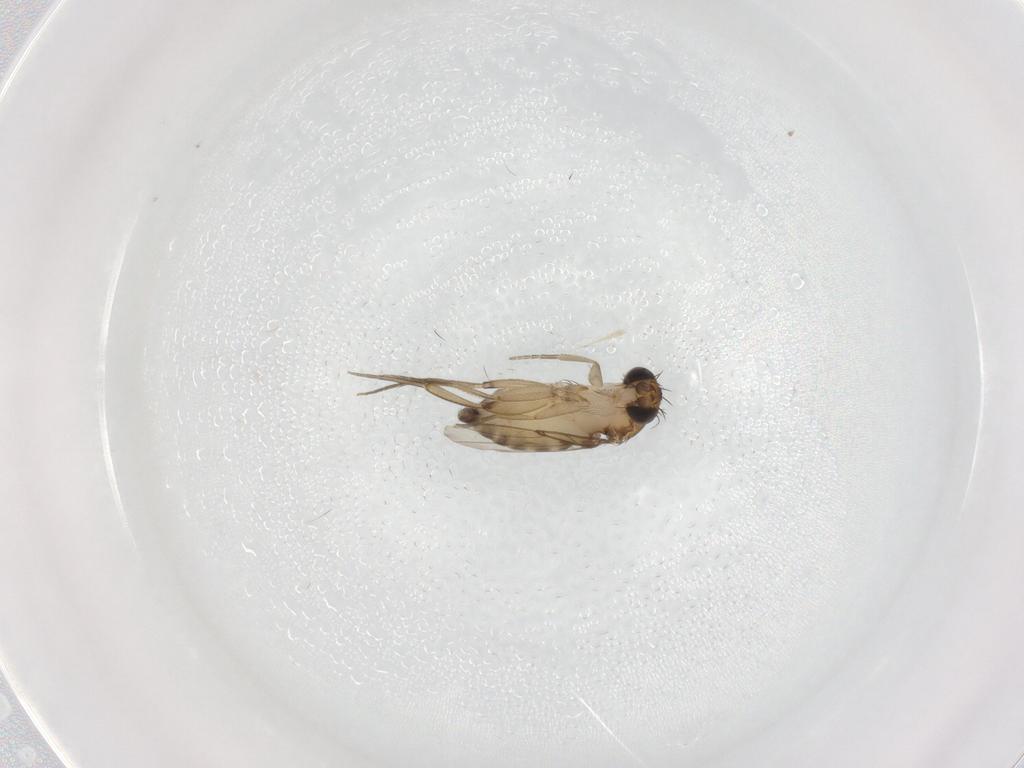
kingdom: Animalia
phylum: Arthropoda
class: Insecta
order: Diptera
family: Phoridae
